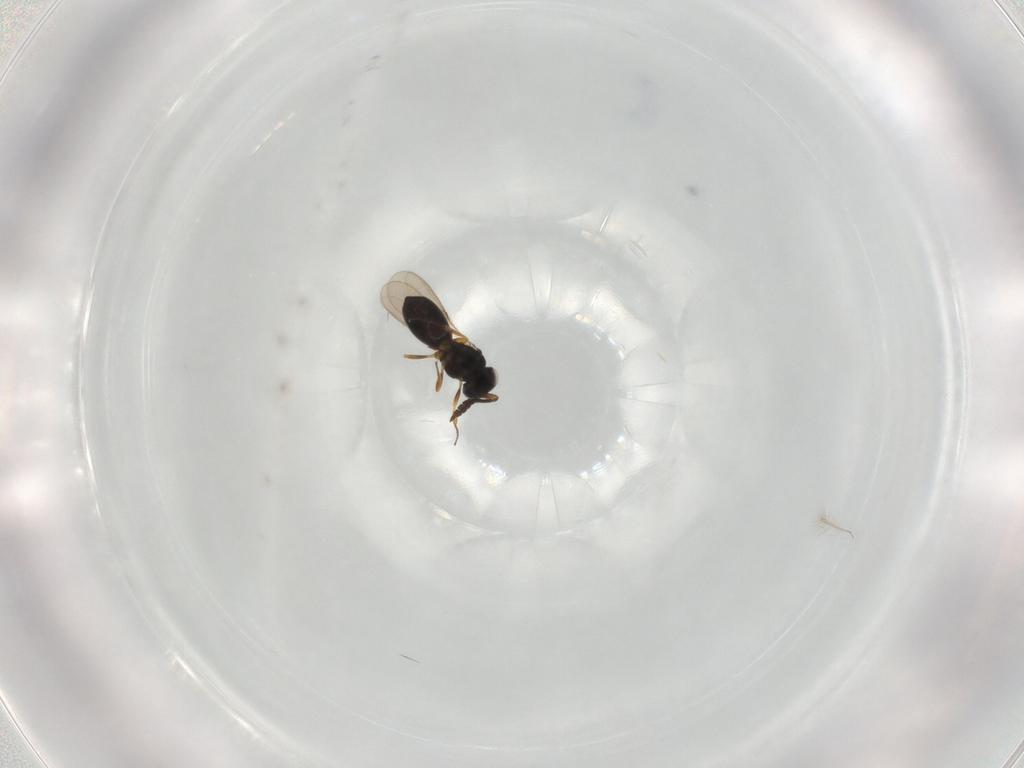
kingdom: Animalia
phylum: Arthropoda
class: Insecta
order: Hymenoptera
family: Scelionidae
